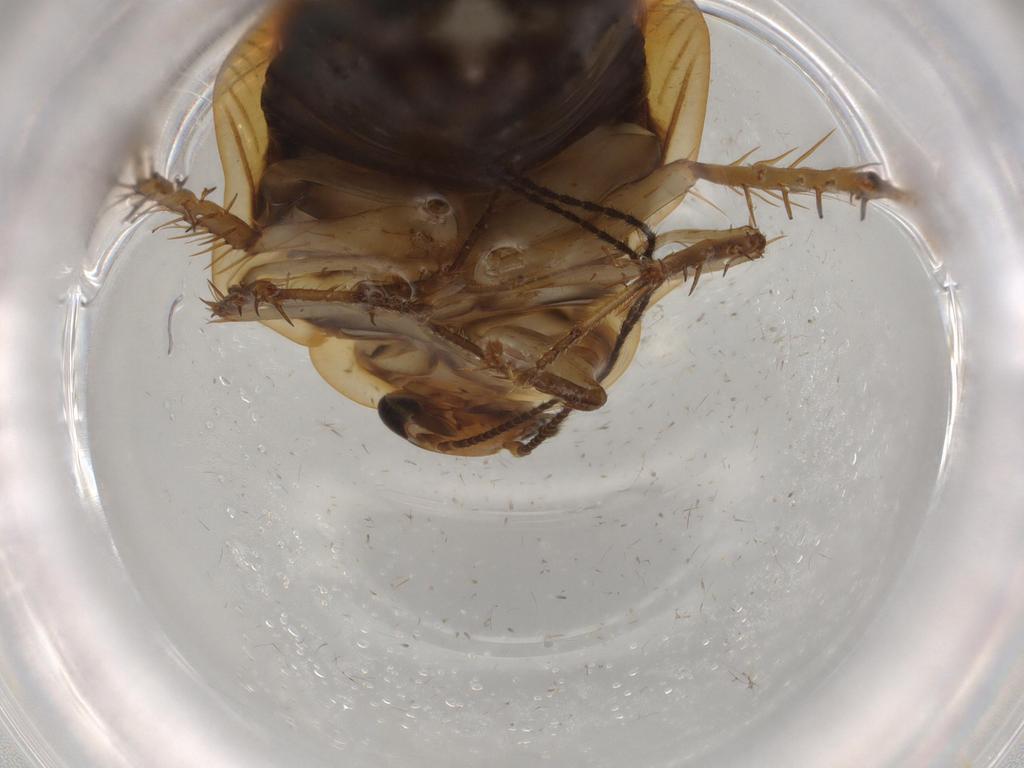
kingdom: Animalia
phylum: Arthropoda
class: Insecta
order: Blattodea
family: Ectobiidae
